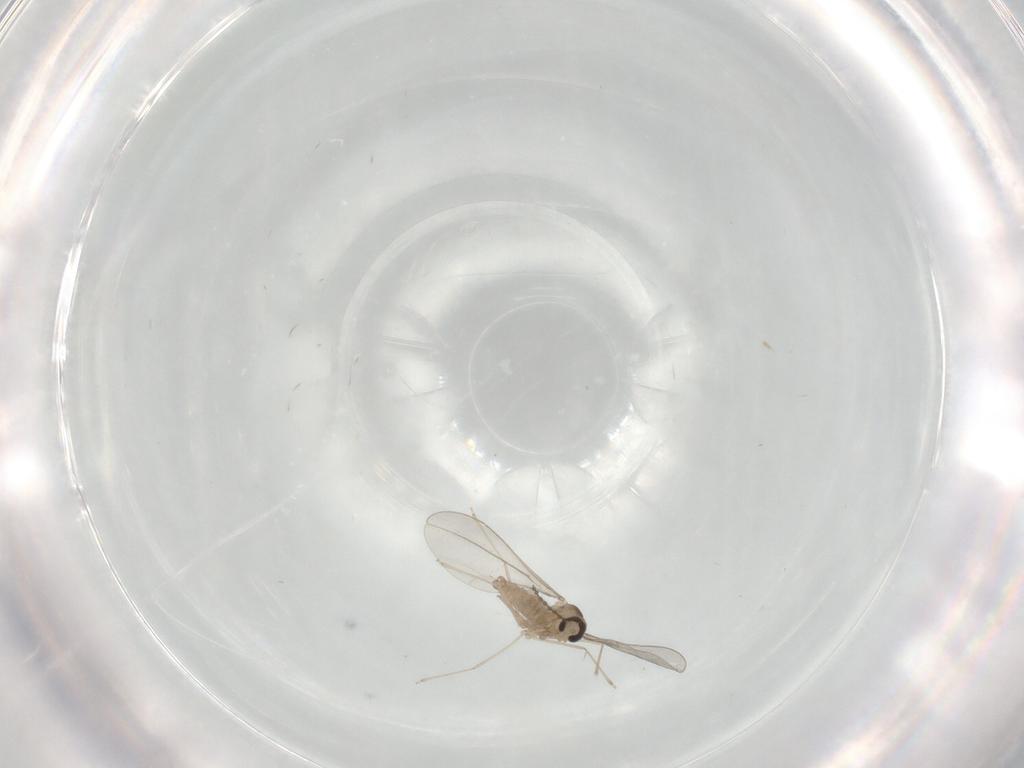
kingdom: Animalia
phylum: Arthropoda
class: Insecta
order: Diptera
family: Cecidomyiidae
